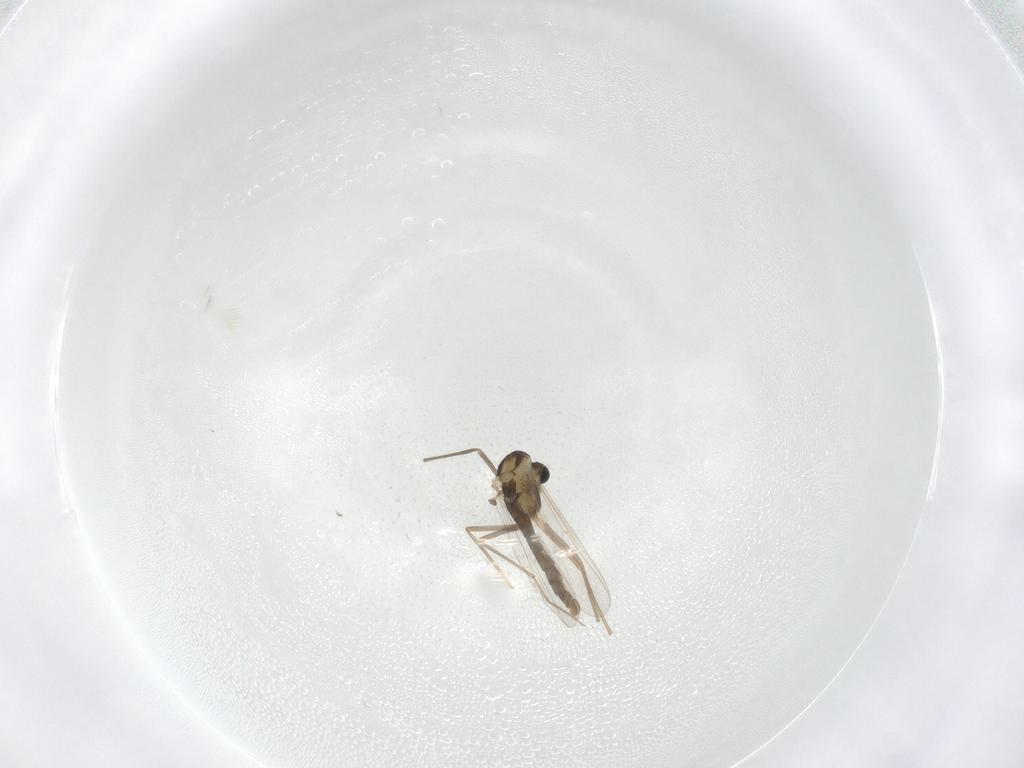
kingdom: Animalia
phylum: Arthropoda
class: Insecta
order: Diptera
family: Chironomidae
